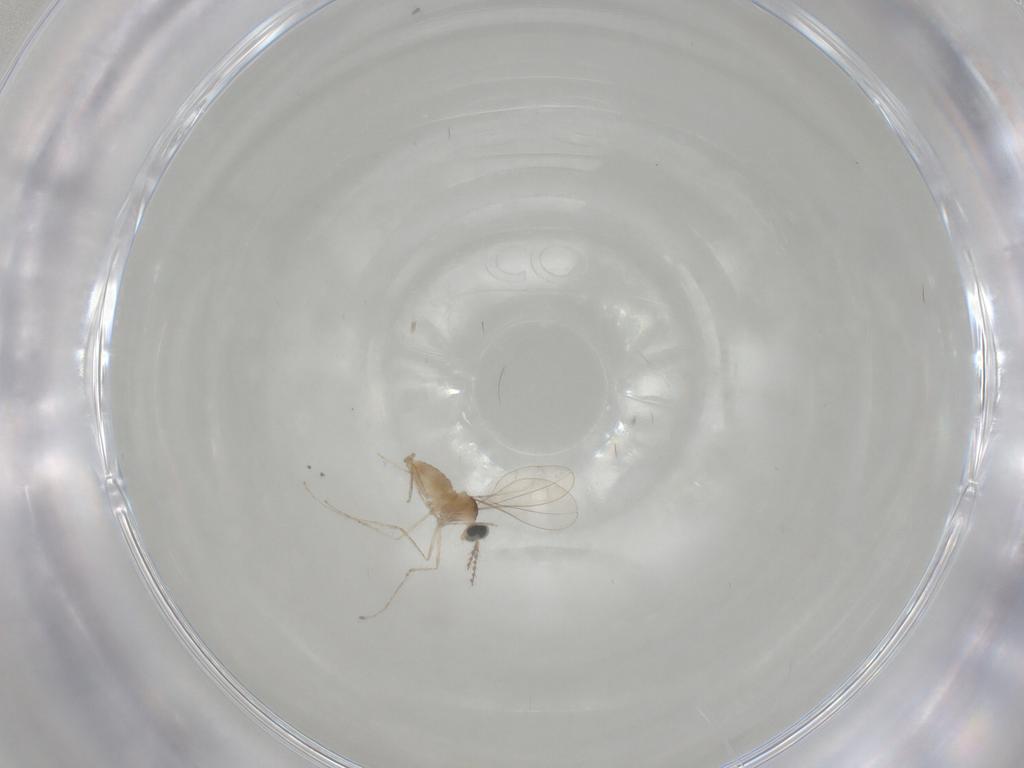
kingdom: Animalia
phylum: Arthropoda
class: Insecta
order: Diptera
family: Cecidomyiidae
